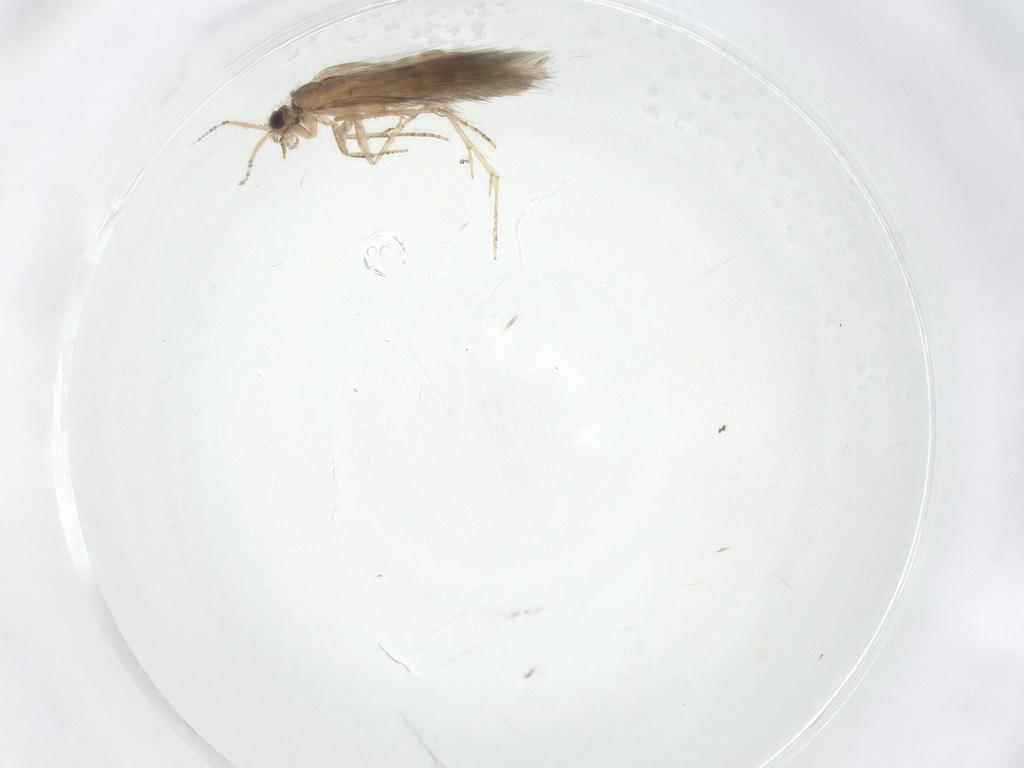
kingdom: Animalia
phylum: Arthropoda
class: Insecta
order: Trichoptera
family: Hydroptilidae
